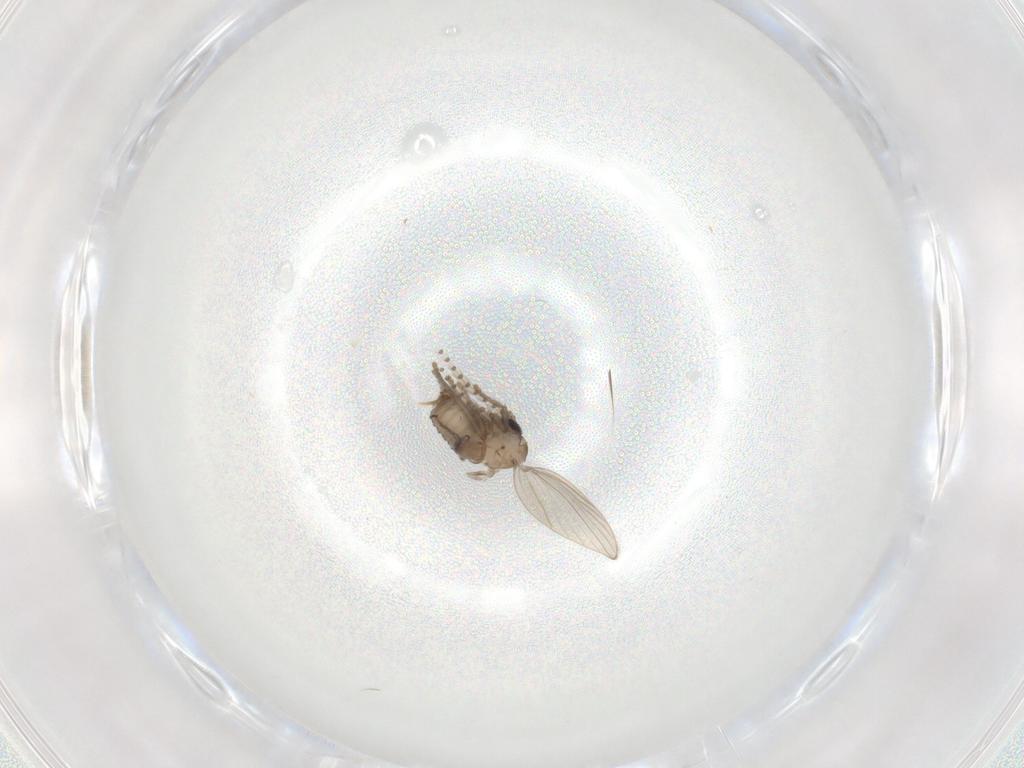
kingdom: Animalia
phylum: Arthropoda
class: Insecta
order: Diptera
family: Psychodidae
